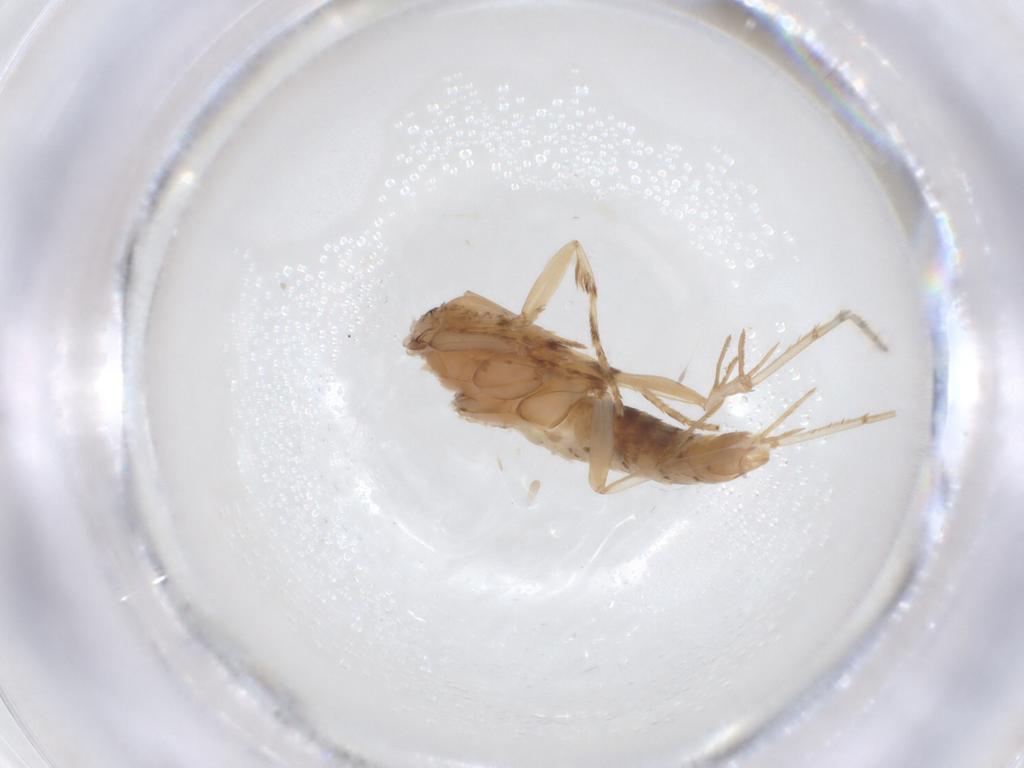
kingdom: Animalia
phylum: Arthropoda
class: Insecta
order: Lepidoptera
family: Tineidae
